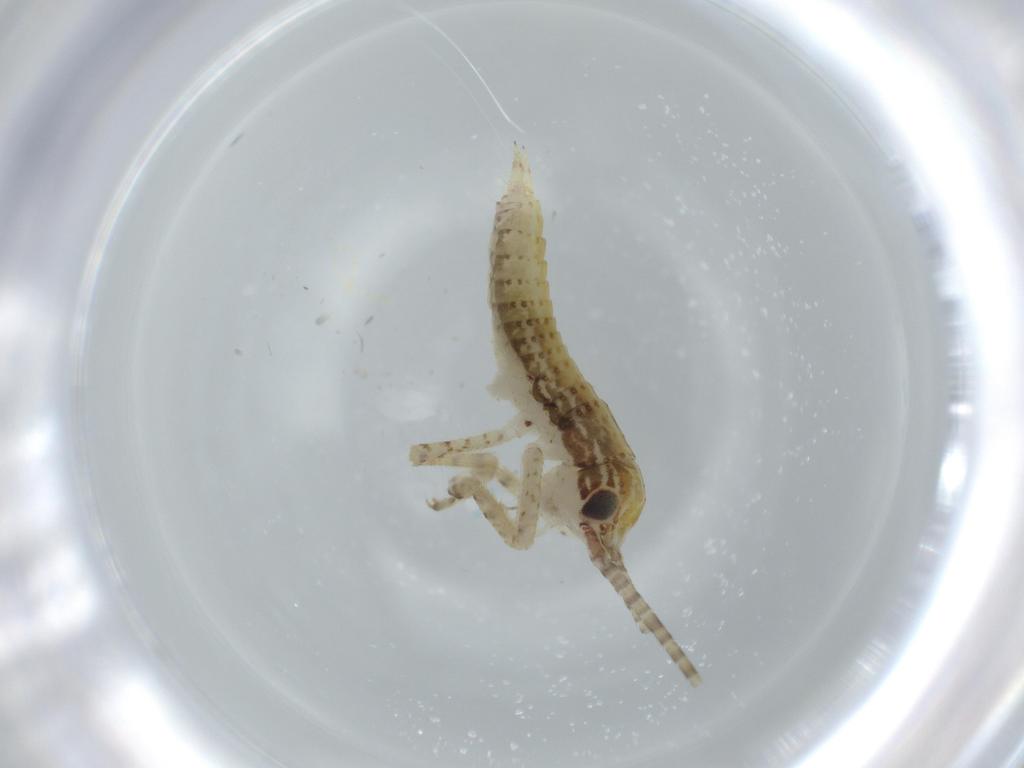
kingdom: Animalia
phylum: Arthropoda
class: Insecta
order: Orthoptera
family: Gryllidae
